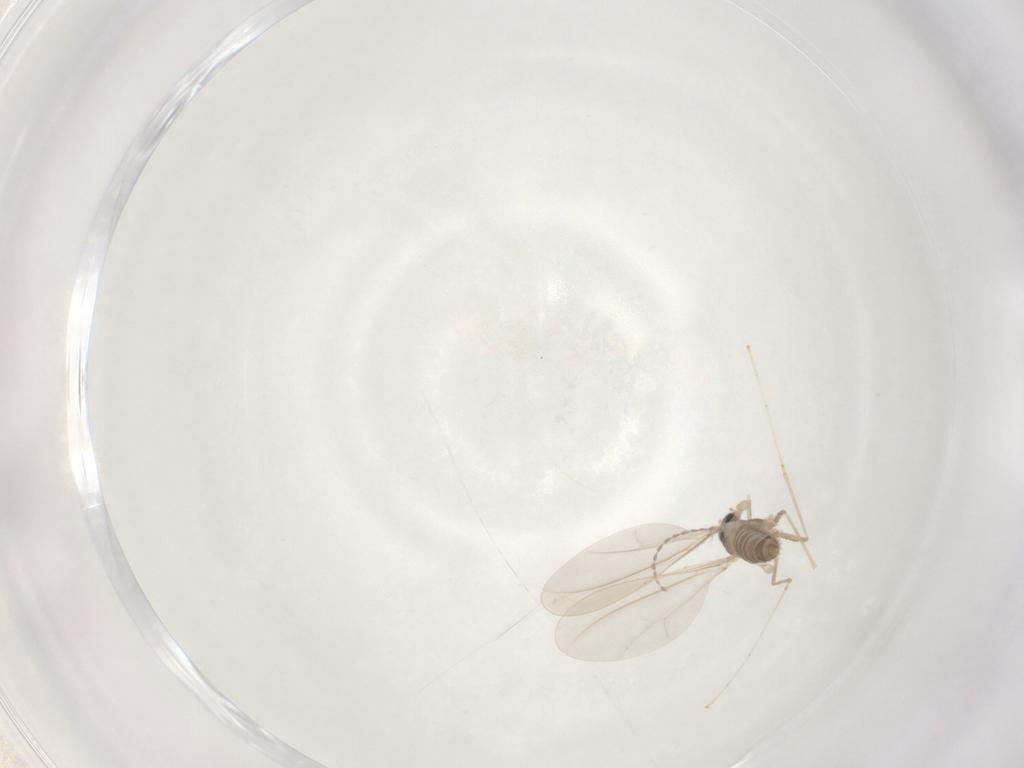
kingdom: Animalia
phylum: Arthropoda
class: Insecta
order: Diptera
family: Cecidomyiidae
